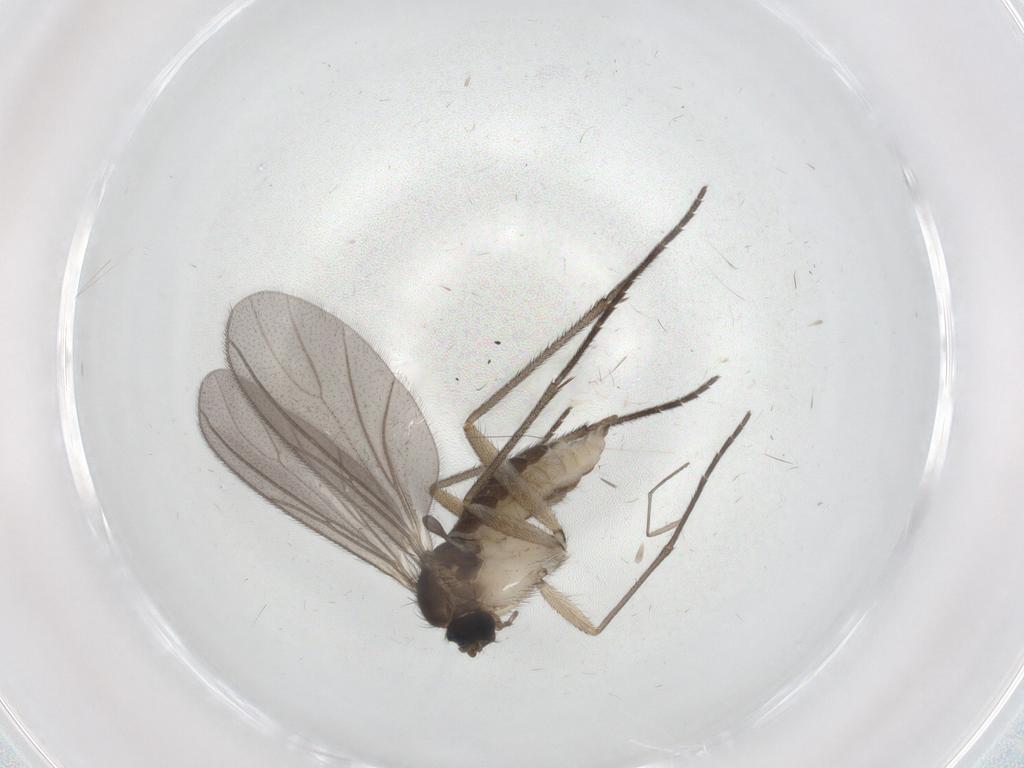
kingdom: Animalia
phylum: Arthropoda
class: Insecta
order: Diptera
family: Sciaridae
